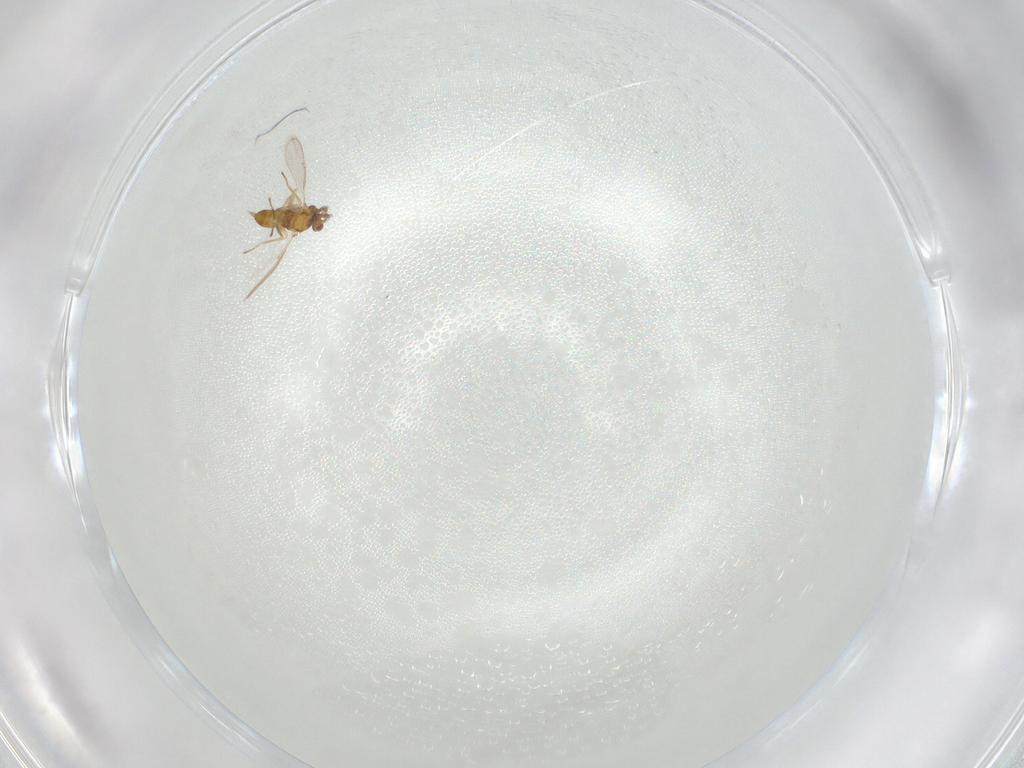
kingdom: Animalia
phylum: Arthropoda
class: Insecta
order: Hymenoptera
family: Eulophidae
